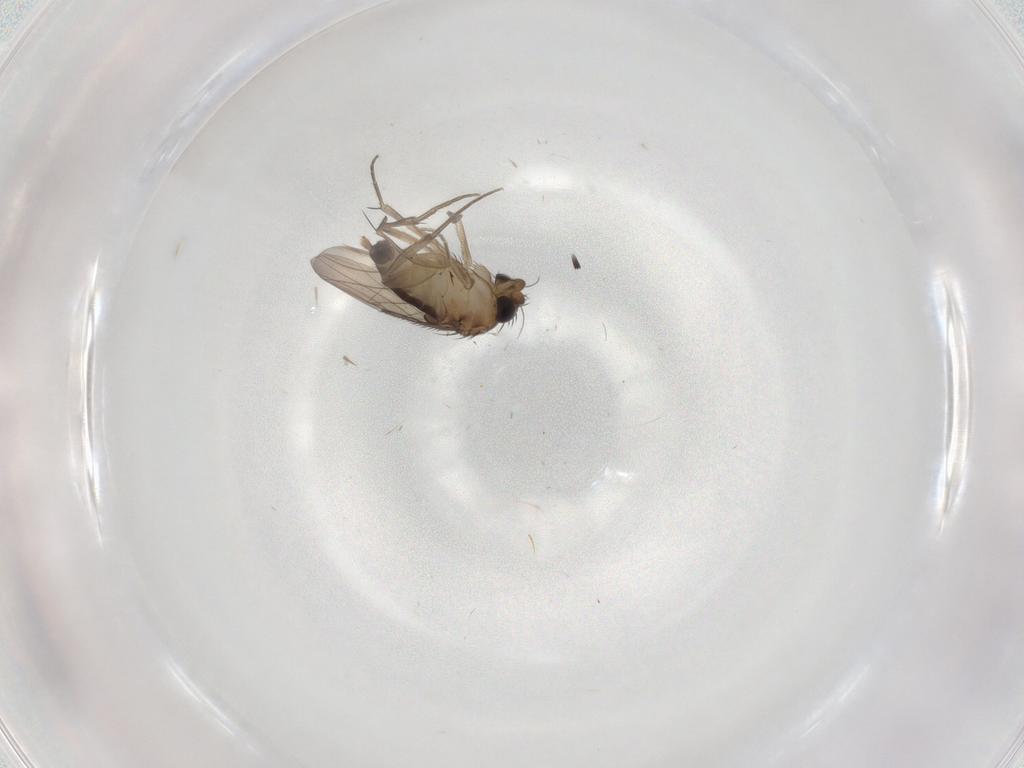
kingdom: Animalia
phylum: Arthropoda
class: Insecta
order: Diptera
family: Phoridae
